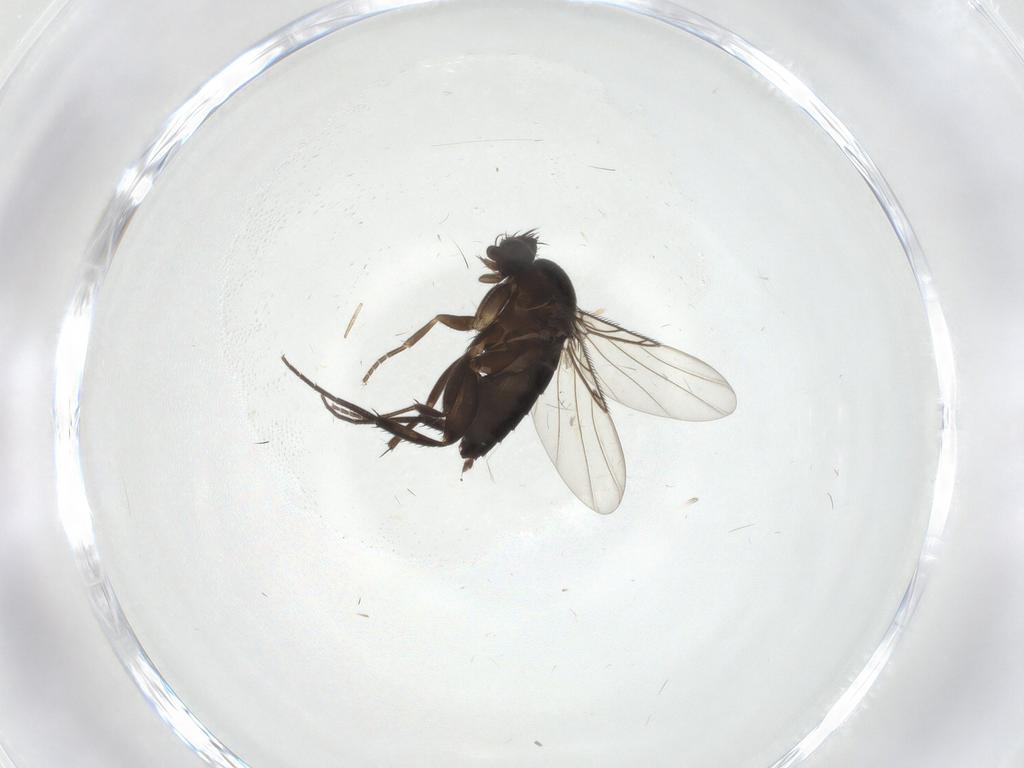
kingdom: Animalia
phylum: Arthropoda
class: Insecta
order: Diptera
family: Phoridae
